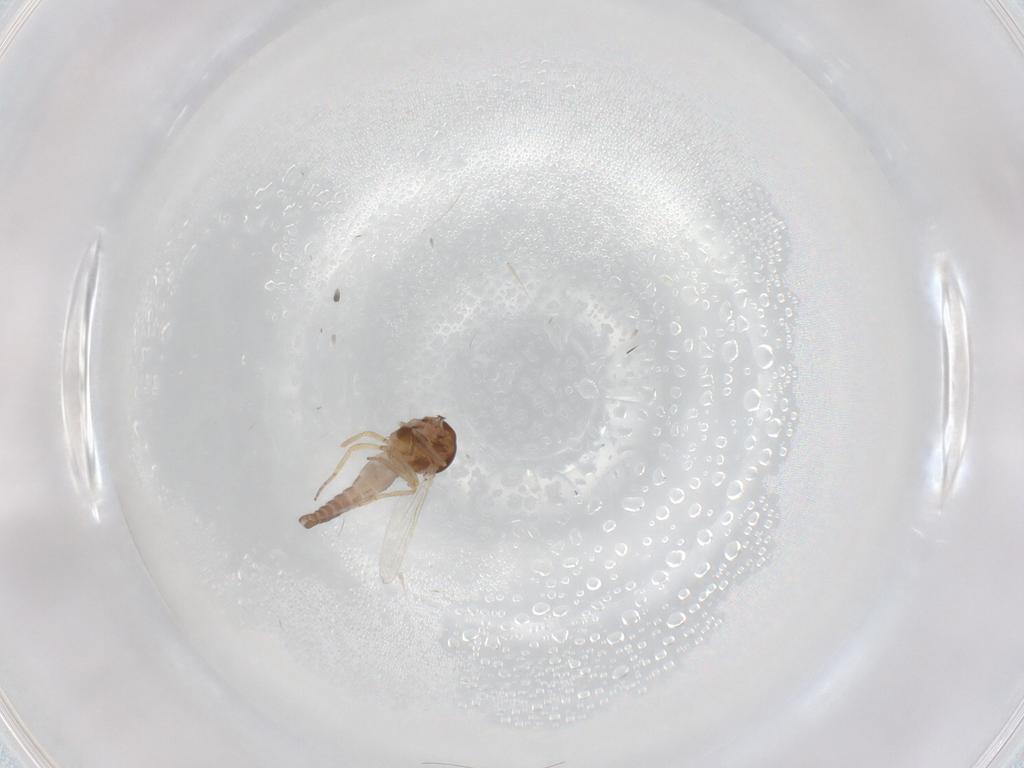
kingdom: Animalia
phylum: Arthropoda
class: Insecta
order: Diptera
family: Ceratopogonidae
